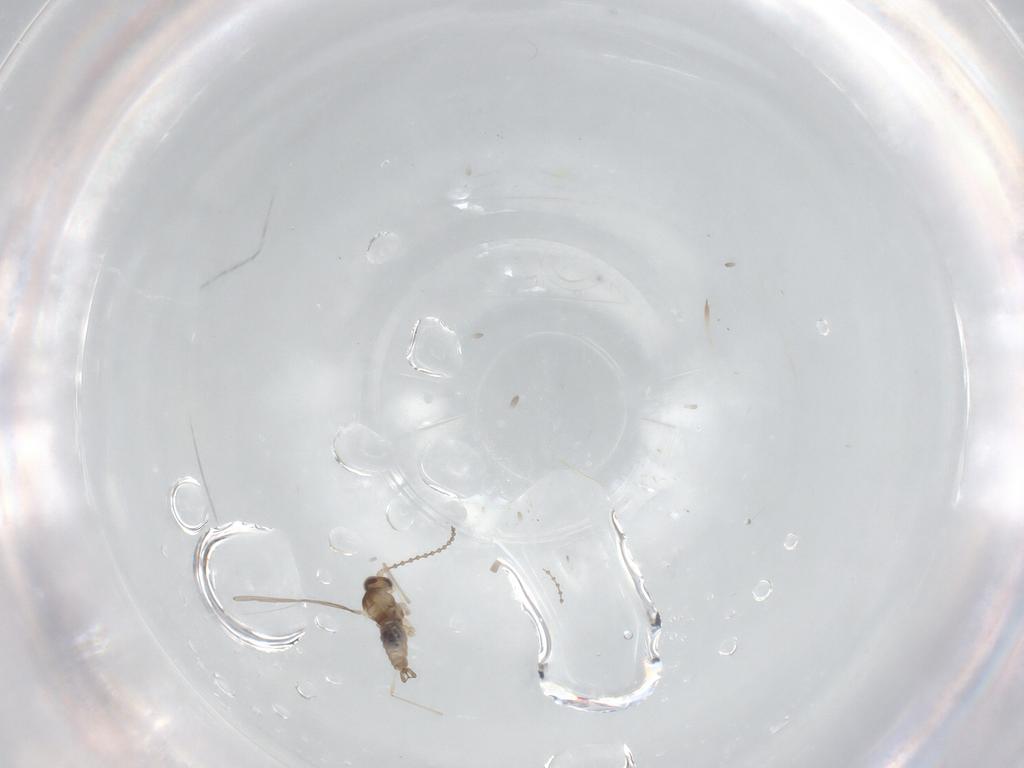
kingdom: Animalia
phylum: Arthropoda
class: Insecta
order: Diptera
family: Cecidomyiidae
